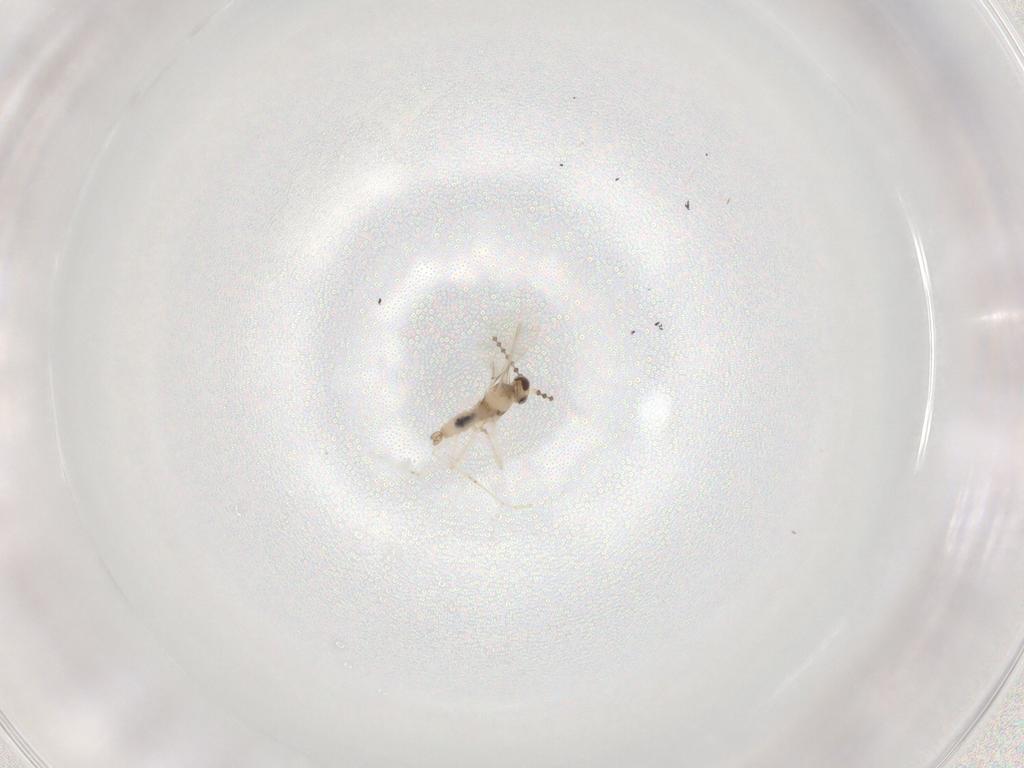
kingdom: Animalia
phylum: Arthropoda
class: Insecta
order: Diptera
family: Cecidomyiidae
